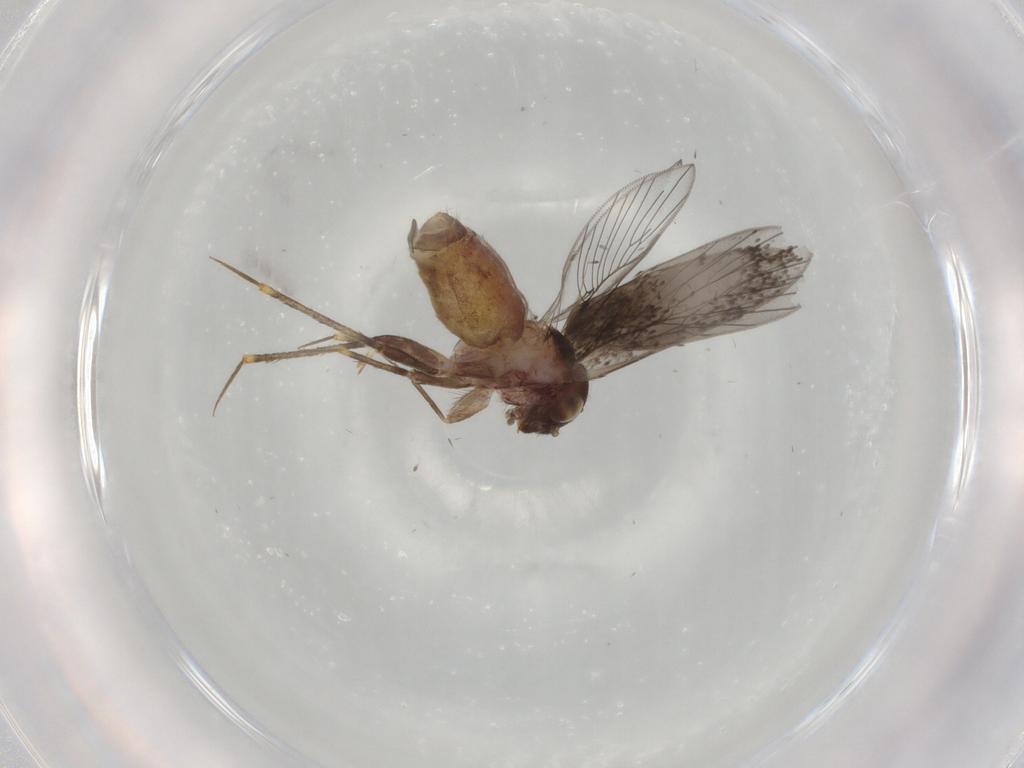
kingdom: Animalia
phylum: Arthropoda
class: Insecta
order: Psocodea
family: Lepidopsocidae
